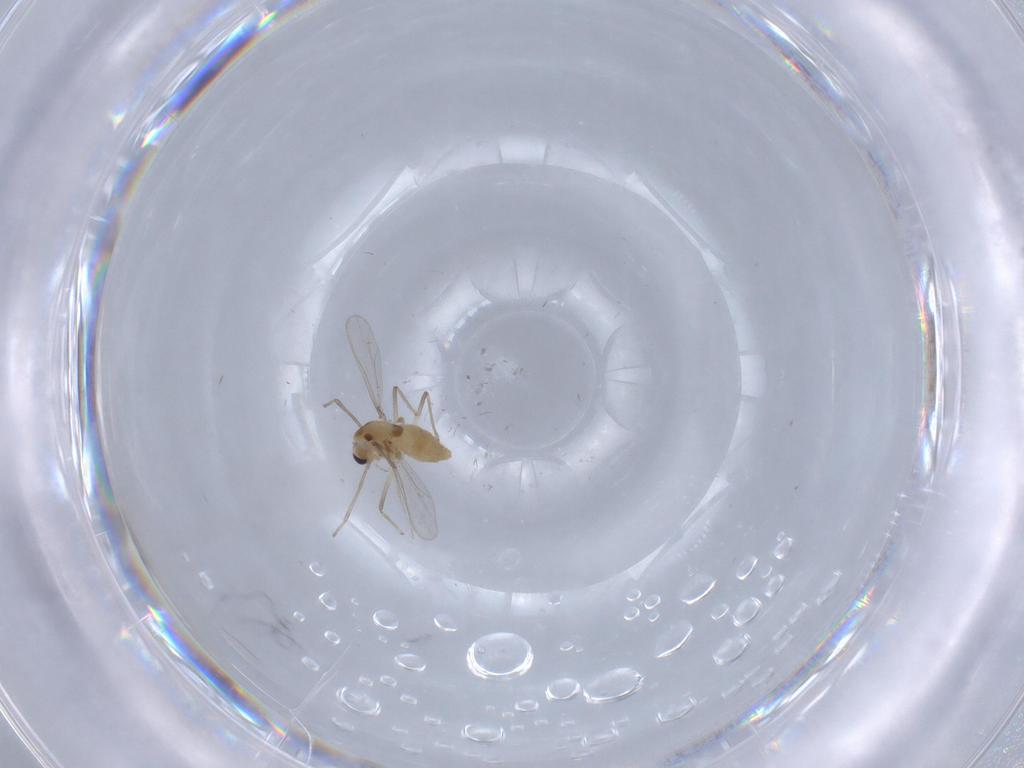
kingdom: Animalia
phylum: Arthropoda
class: Insecta
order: Diptera
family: Chironomidae
